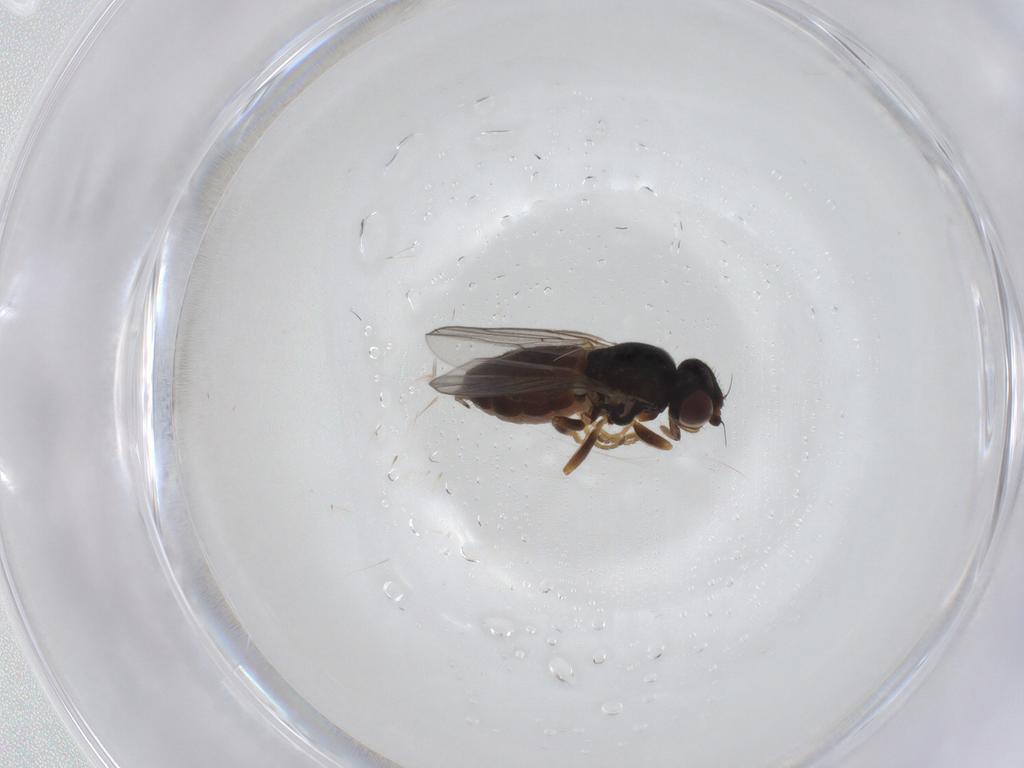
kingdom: Animalia
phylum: Arthropoda
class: Insecta
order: Diptera
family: Chloropidae
